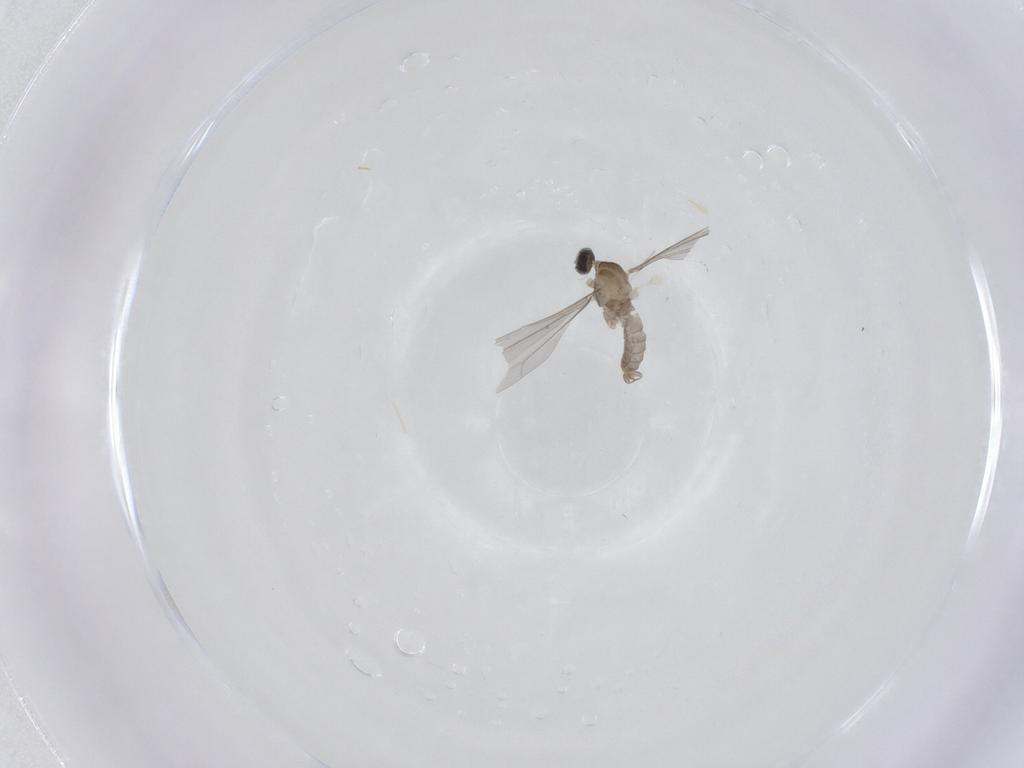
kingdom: Animalia
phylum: Arthropoda
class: Insecta
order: Diptera
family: Cecidomyiidae
